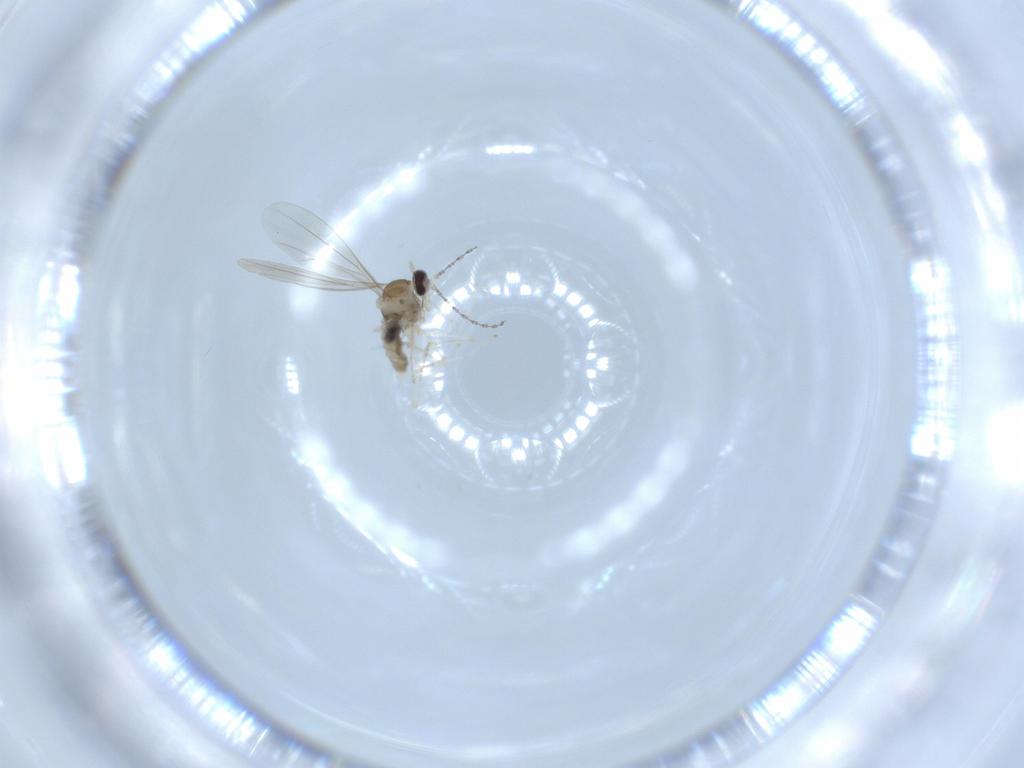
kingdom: Animalia
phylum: Arthropoda
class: Insecta
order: Diptera
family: Cecidomyiidae
